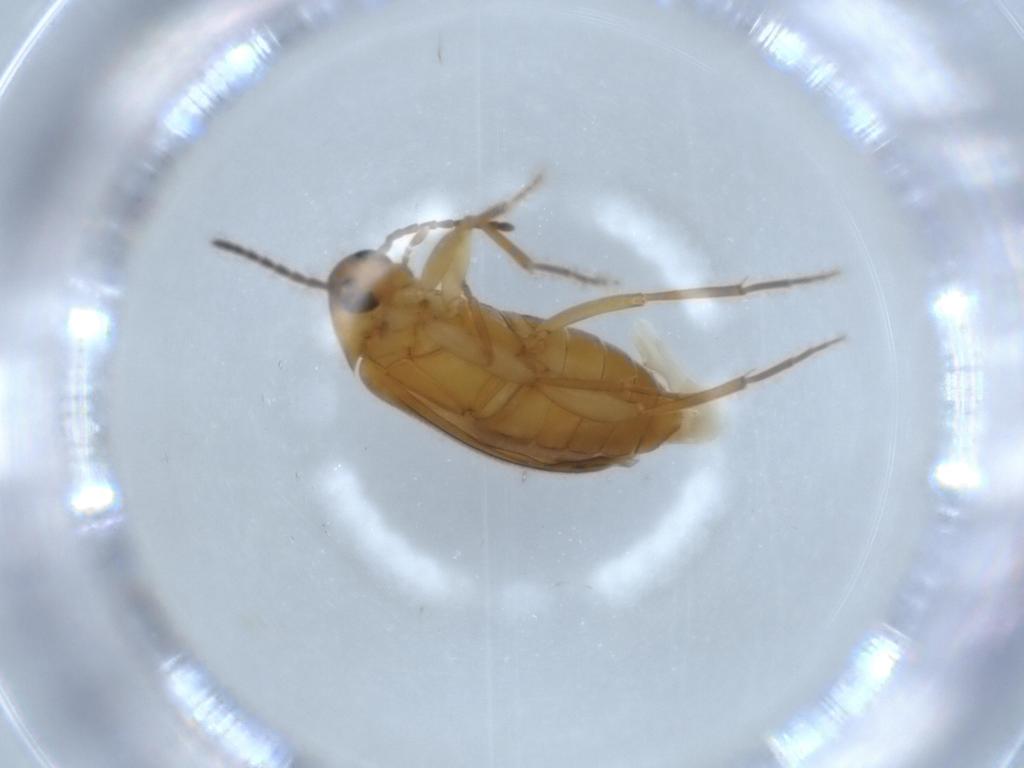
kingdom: Animalia
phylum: Arthropoda
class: Insecta
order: Coleoptera
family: Scraptiidae
